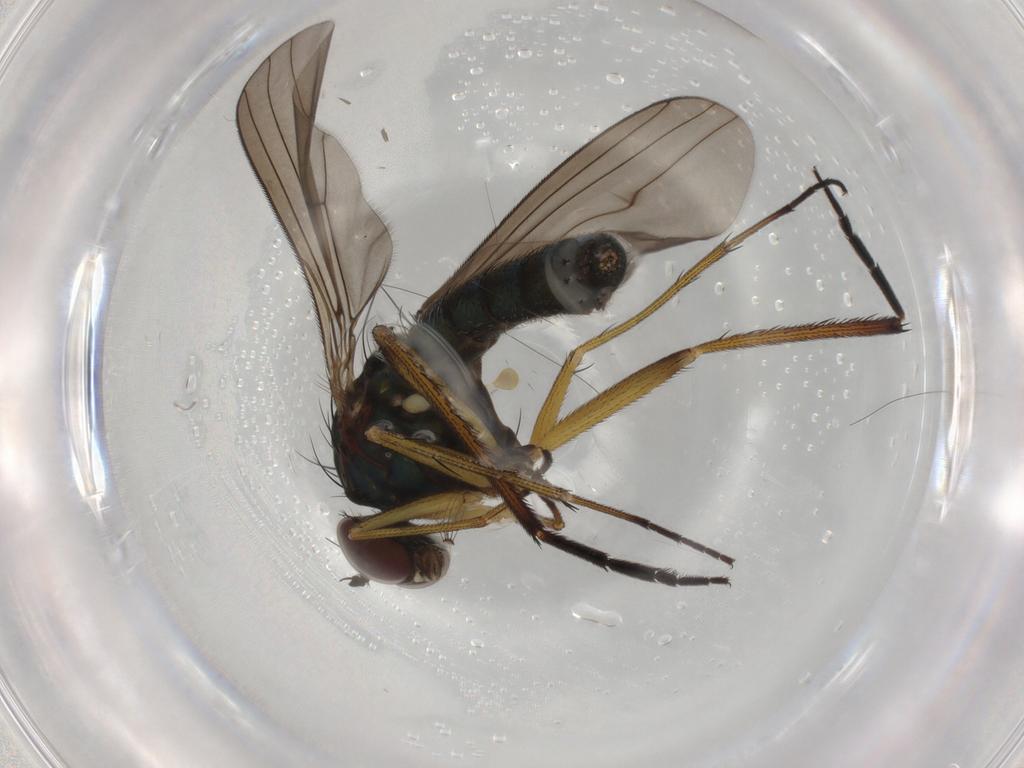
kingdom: Animalia
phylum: Arthropoda
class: Insecta
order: Diptera
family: Dolichopodidae
